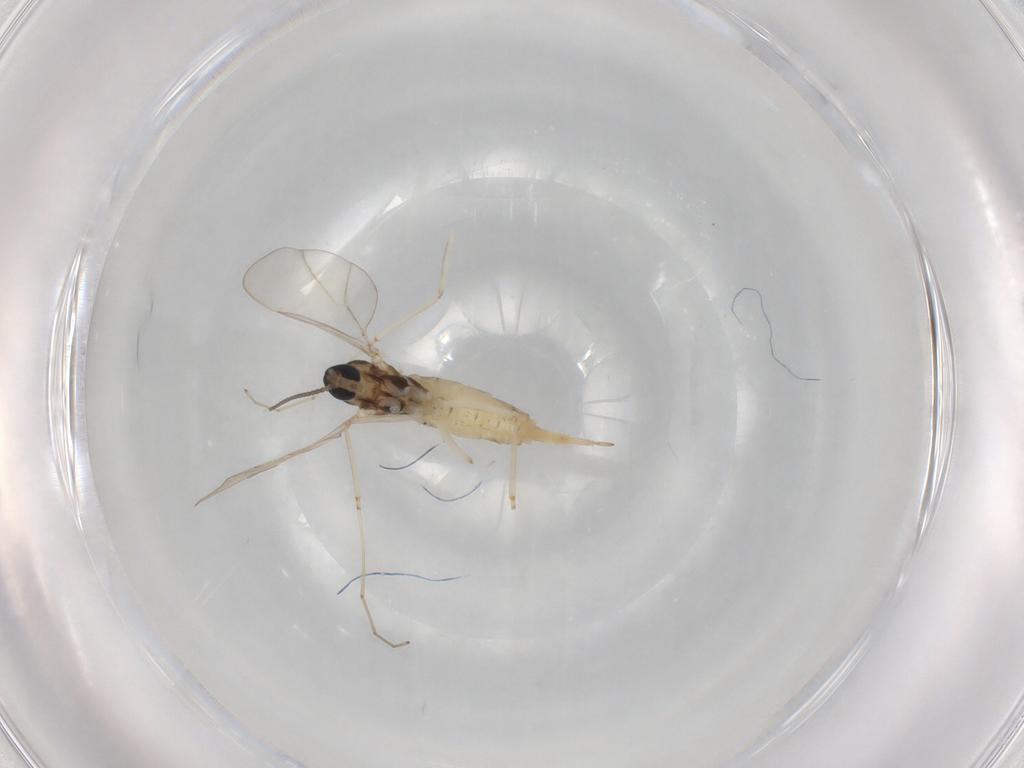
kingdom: Animalia
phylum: Arthropoda
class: Insecta
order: Diptera
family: Cecidomyiidae
